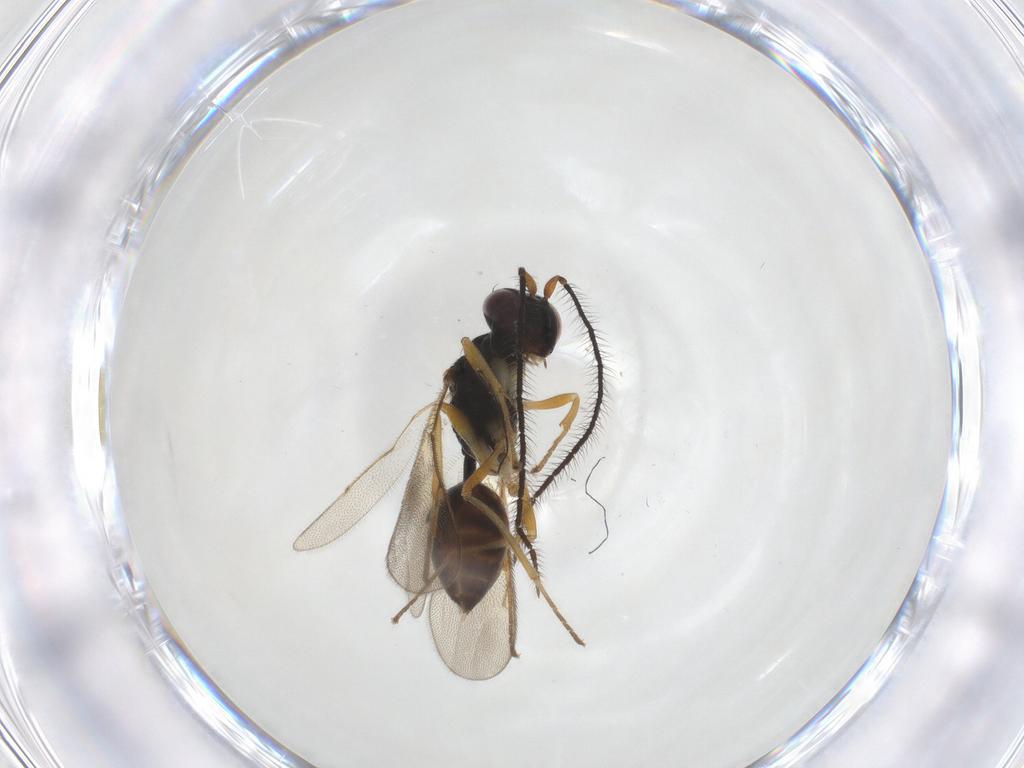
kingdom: Animalia
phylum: Arthropoda
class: Insecta
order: Hymenoptera
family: Eulophidae
